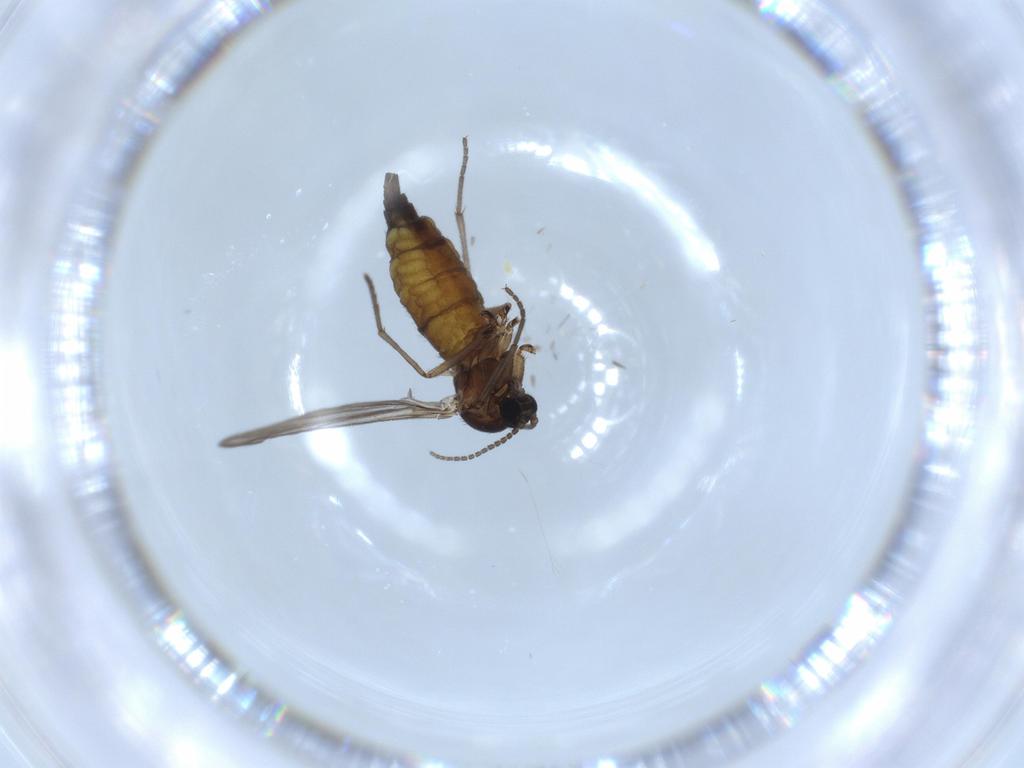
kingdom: Animalia
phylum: Arthropoda
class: Insecta
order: Diptera
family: Sciaridae
